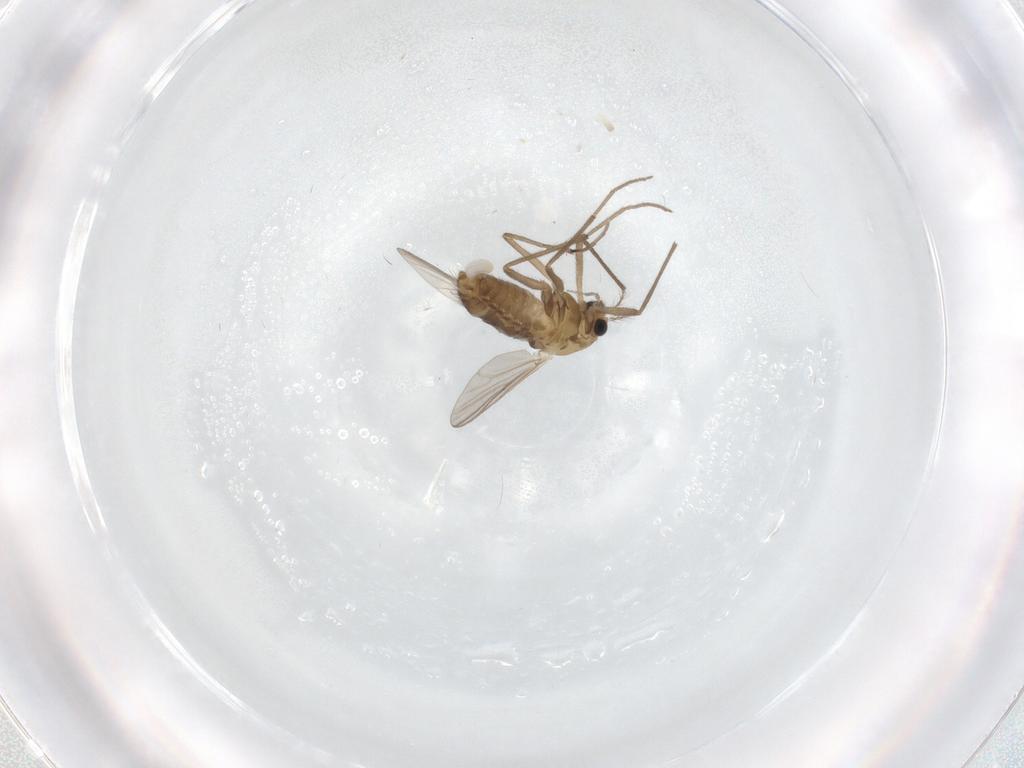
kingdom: Animalia
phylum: Arthropoda
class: Insecta
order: Diptera
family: Chironomidae
